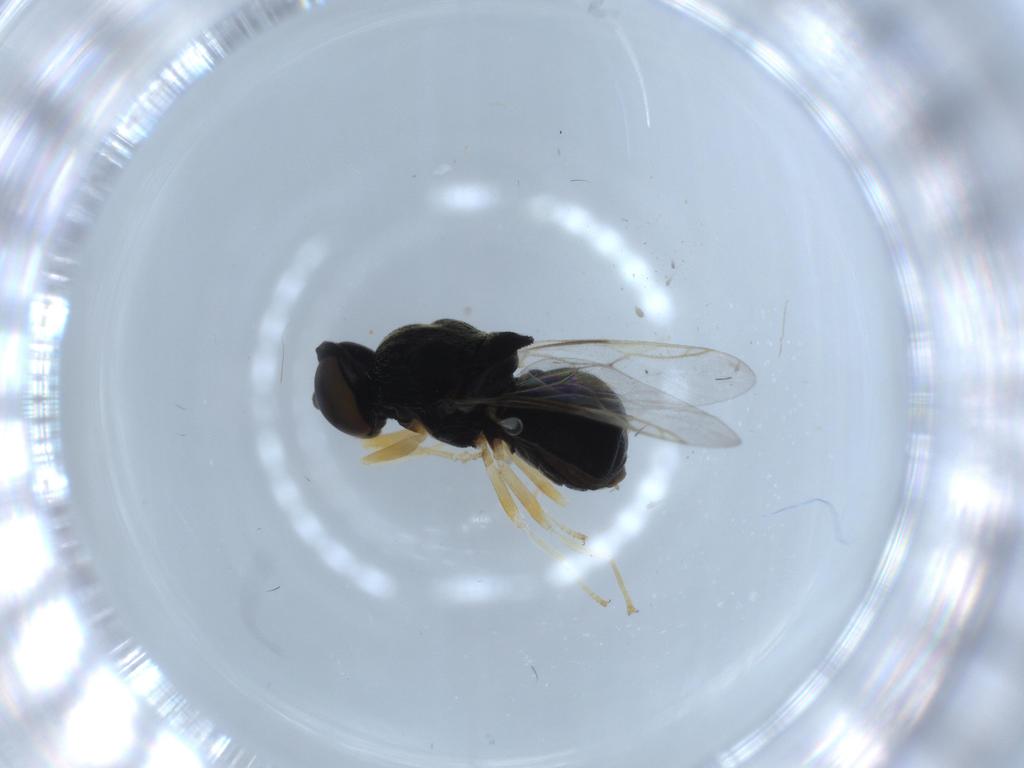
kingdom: Animalia
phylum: Arthropoda
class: Insecta
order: Diptera
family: Stratiomyidae
